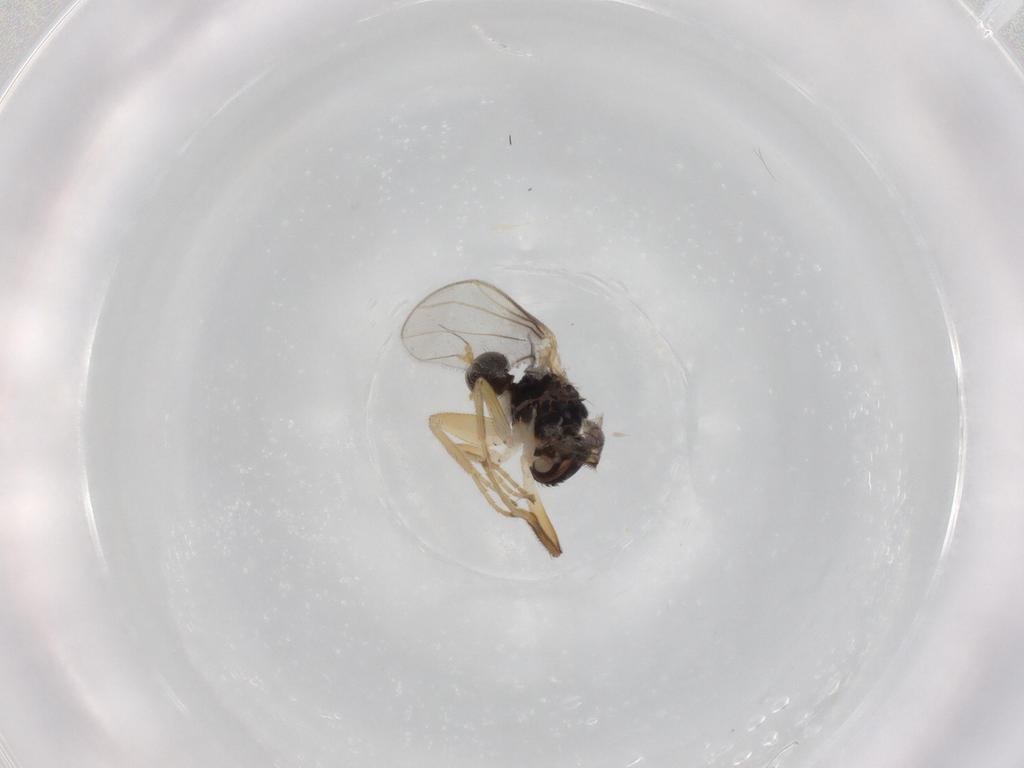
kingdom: Animalia
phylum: Arthropoda
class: Insecta
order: Diptera
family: Hybotidae
